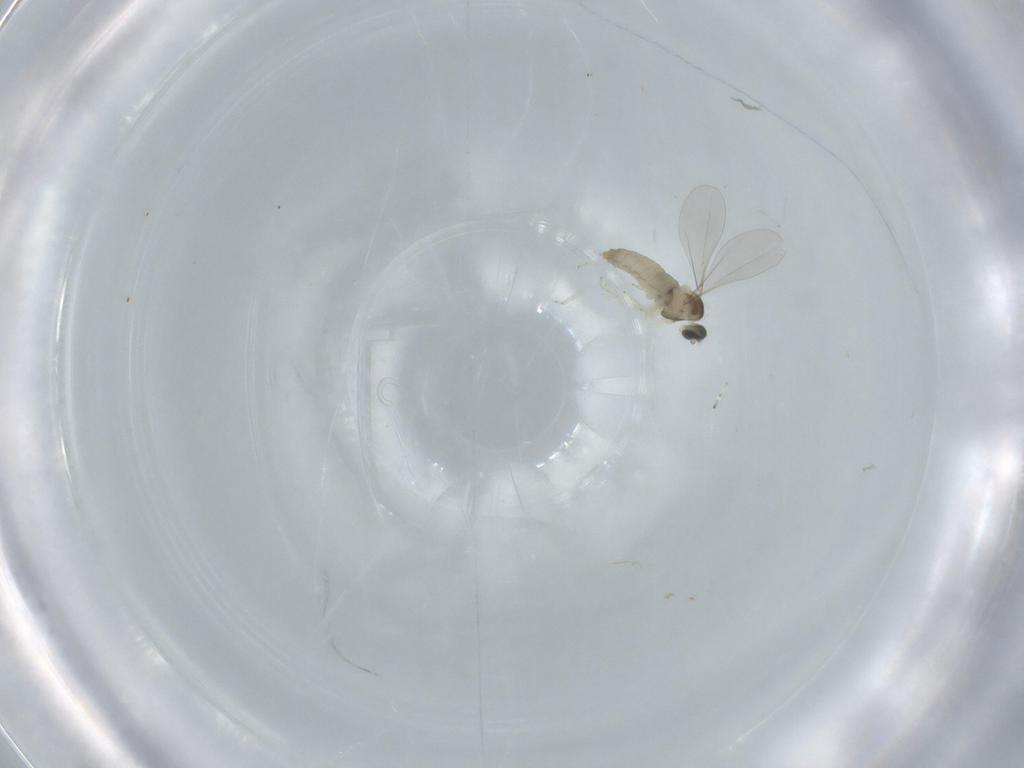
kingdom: Animalia
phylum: Arthropoda
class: Insecta
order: Diptera
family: Sciaridae
